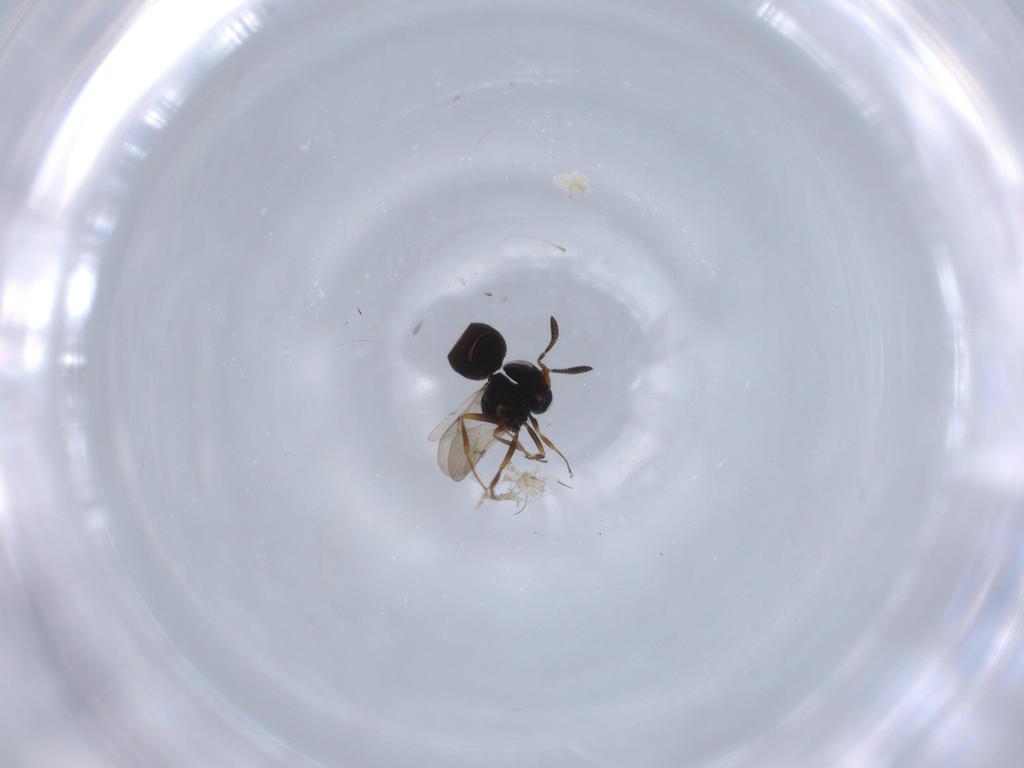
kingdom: Animalia
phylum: Arthropoda
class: Insecta
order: Hymenoptera
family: Scelionidae
